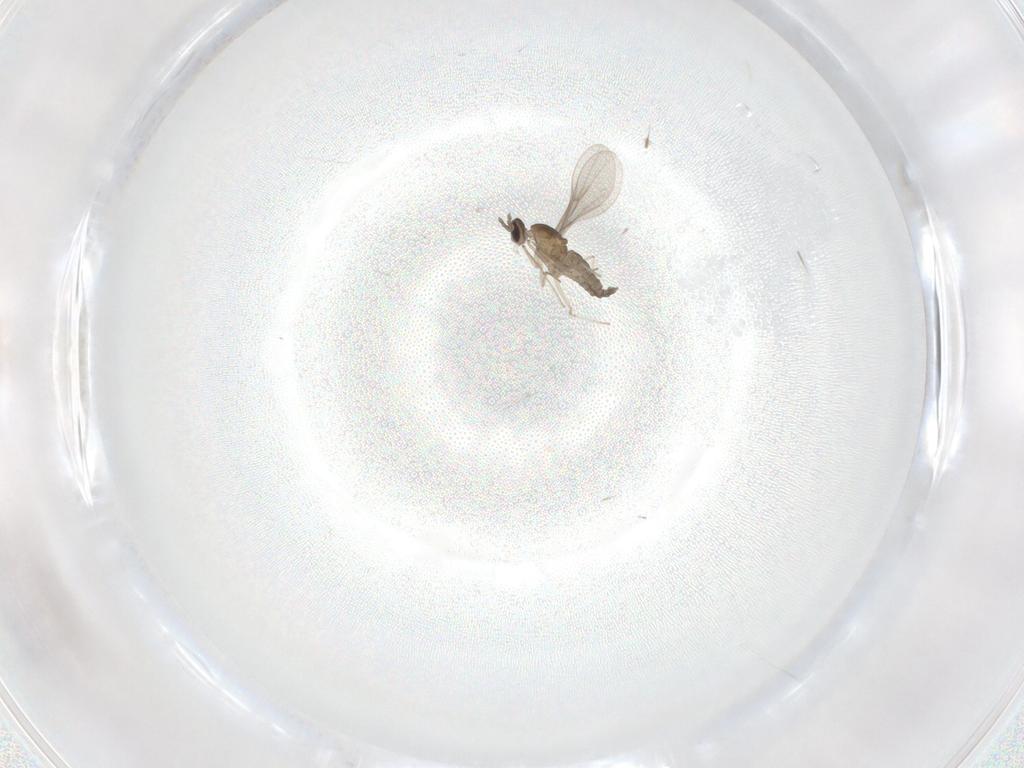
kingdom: Animalia
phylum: Arthropoda
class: Insecta
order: Diptera
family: Cecidomyiidae
